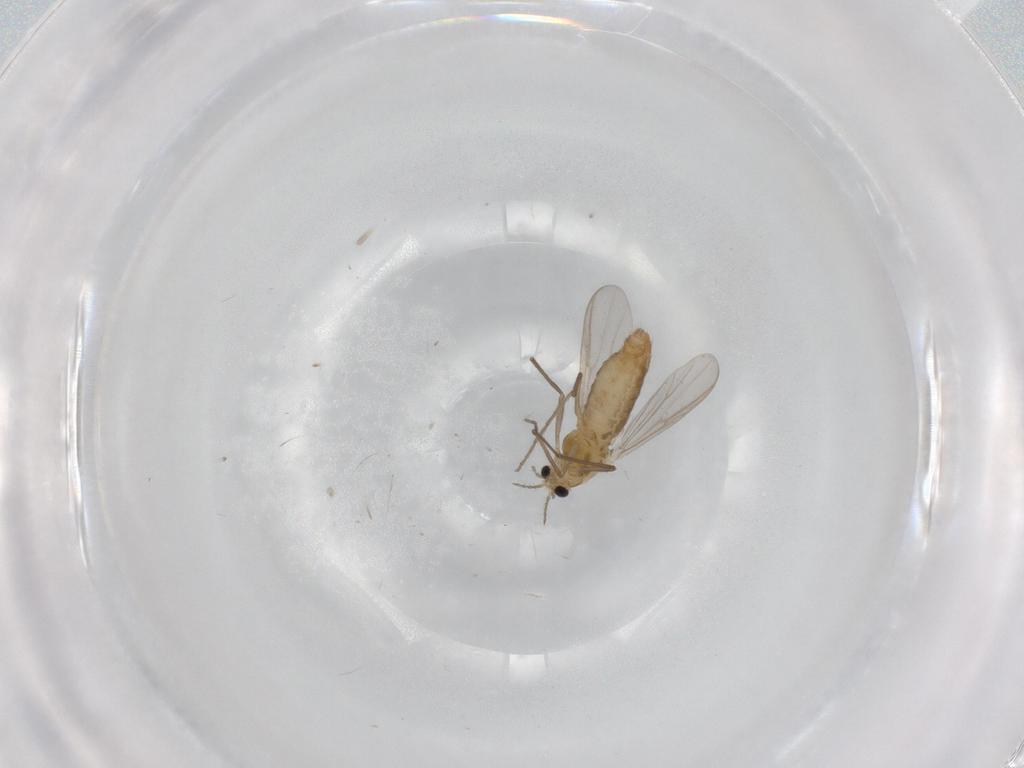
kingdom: Animalia
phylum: Arthropoda
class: Insecta
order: Diptera
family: Chironomidae
